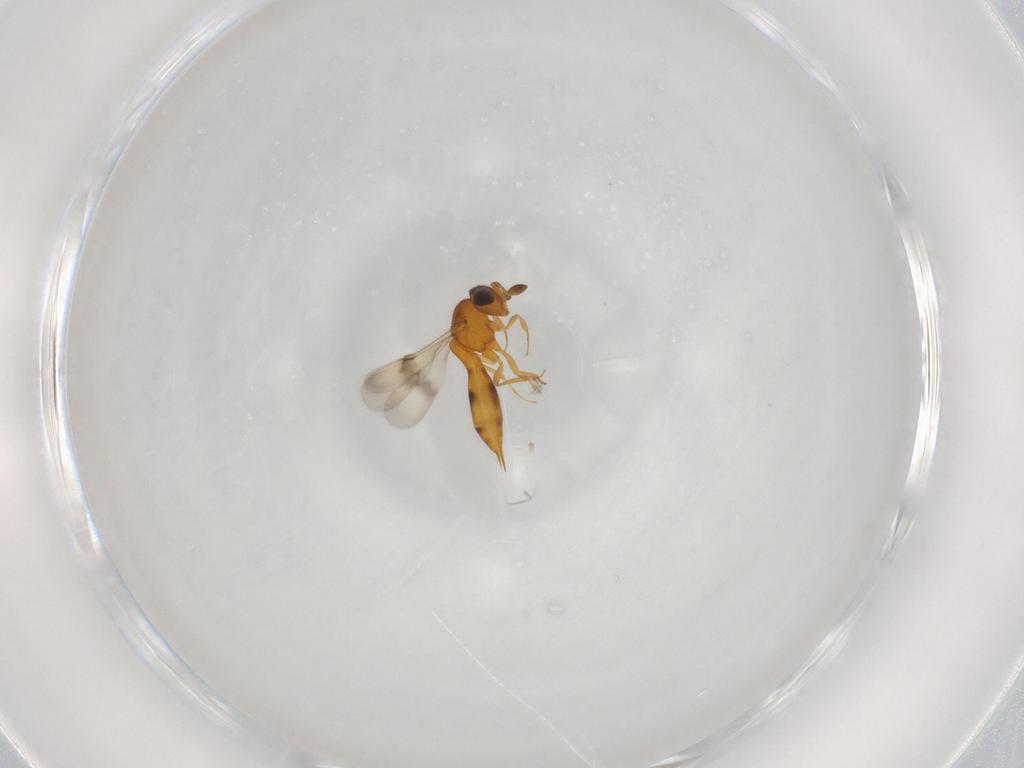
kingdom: Animalia
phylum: Arthropoda
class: Insecta
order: Hymenoptera
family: Scelionidae
